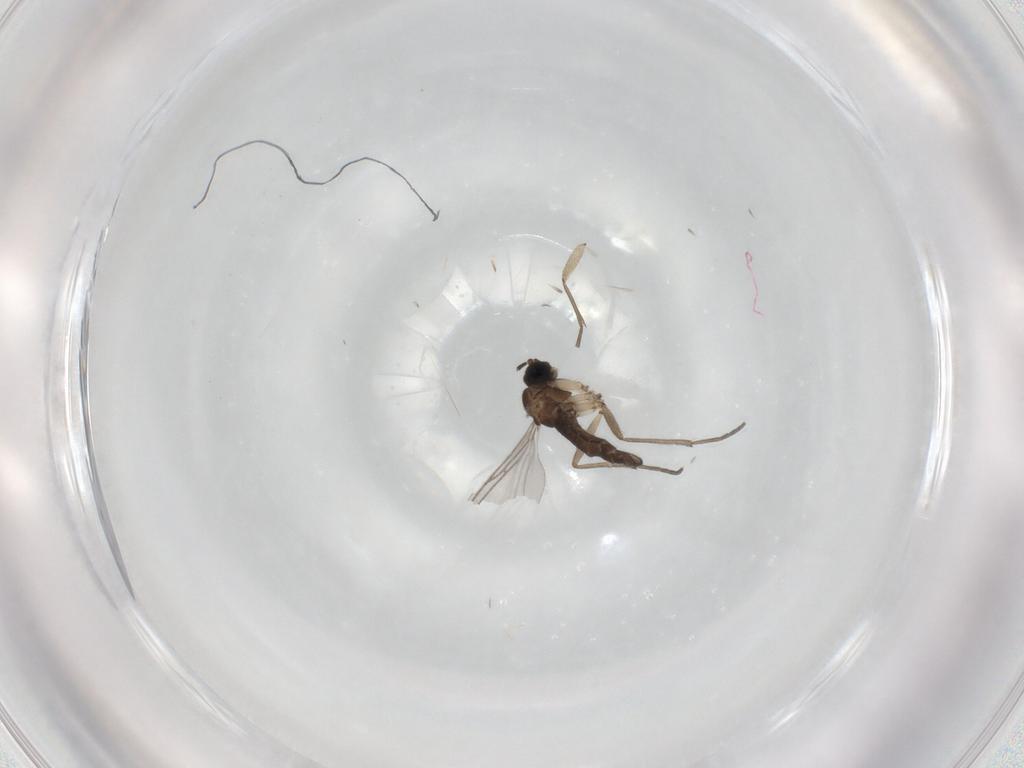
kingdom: Animalia
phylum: Arthropoda
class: Insecta
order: Diptera
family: Sciaridae
